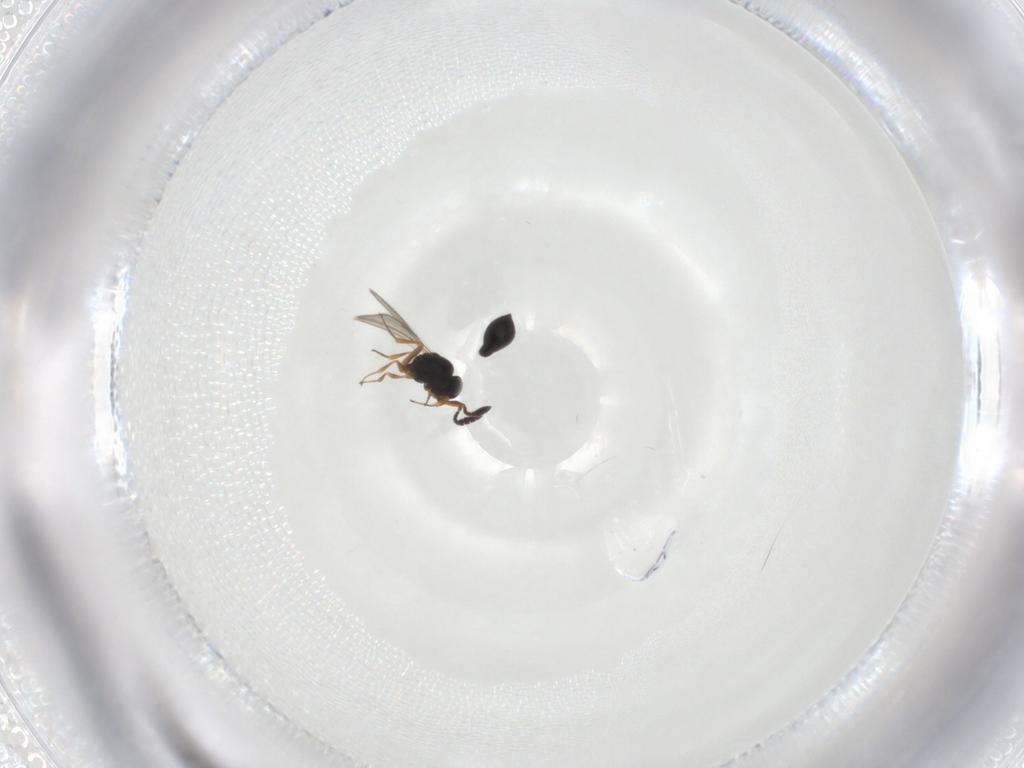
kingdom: Animalia
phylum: Arthropoda
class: Insecta
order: Hymenoptera
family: Scelionidae
